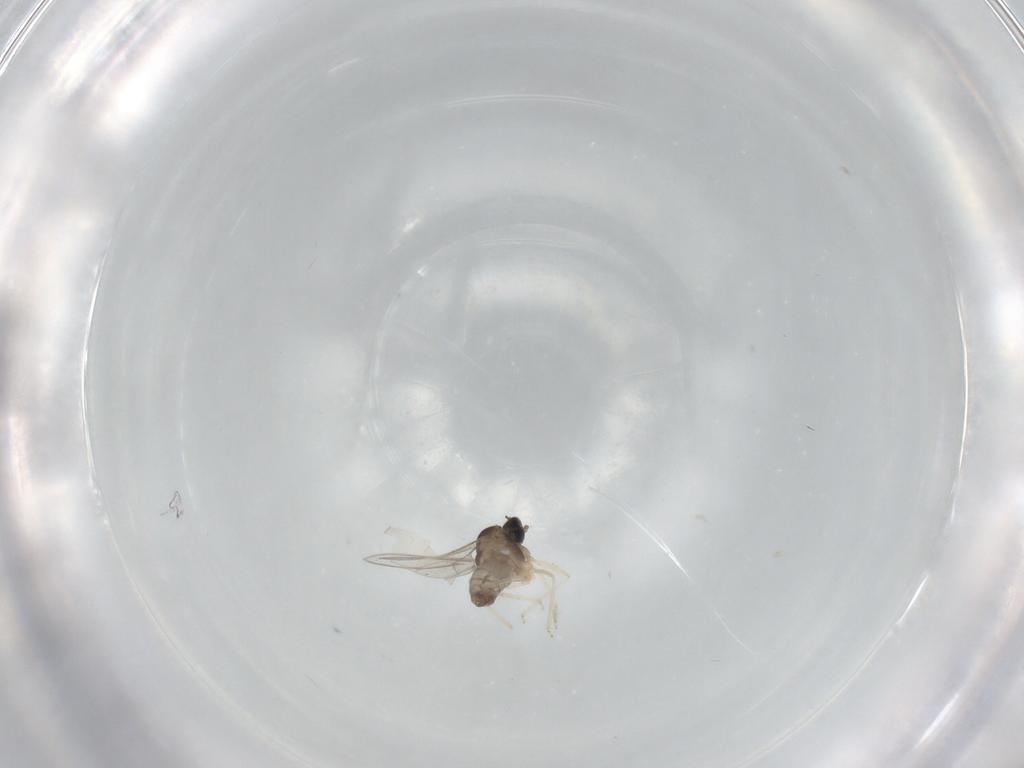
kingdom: Animalia
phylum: Arthropoda
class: Insecta
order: Diptera
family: Cecidomyiidae
